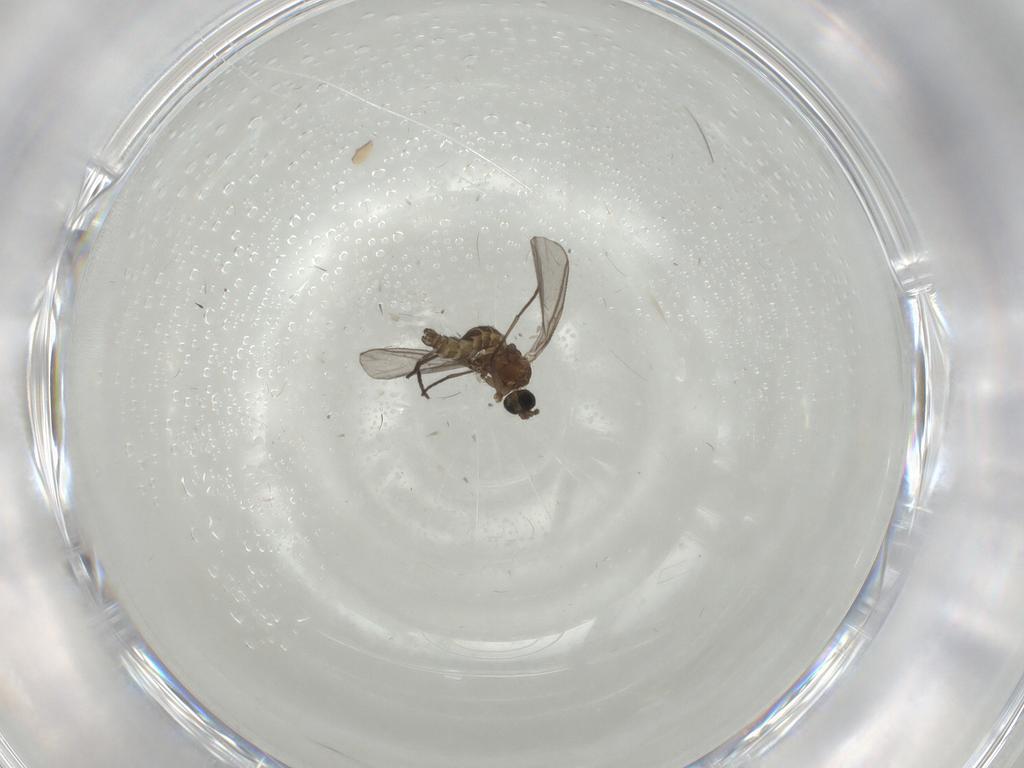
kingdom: Animalia
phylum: Arthropoda
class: Insecta
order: Diptera
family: Sciaridae
